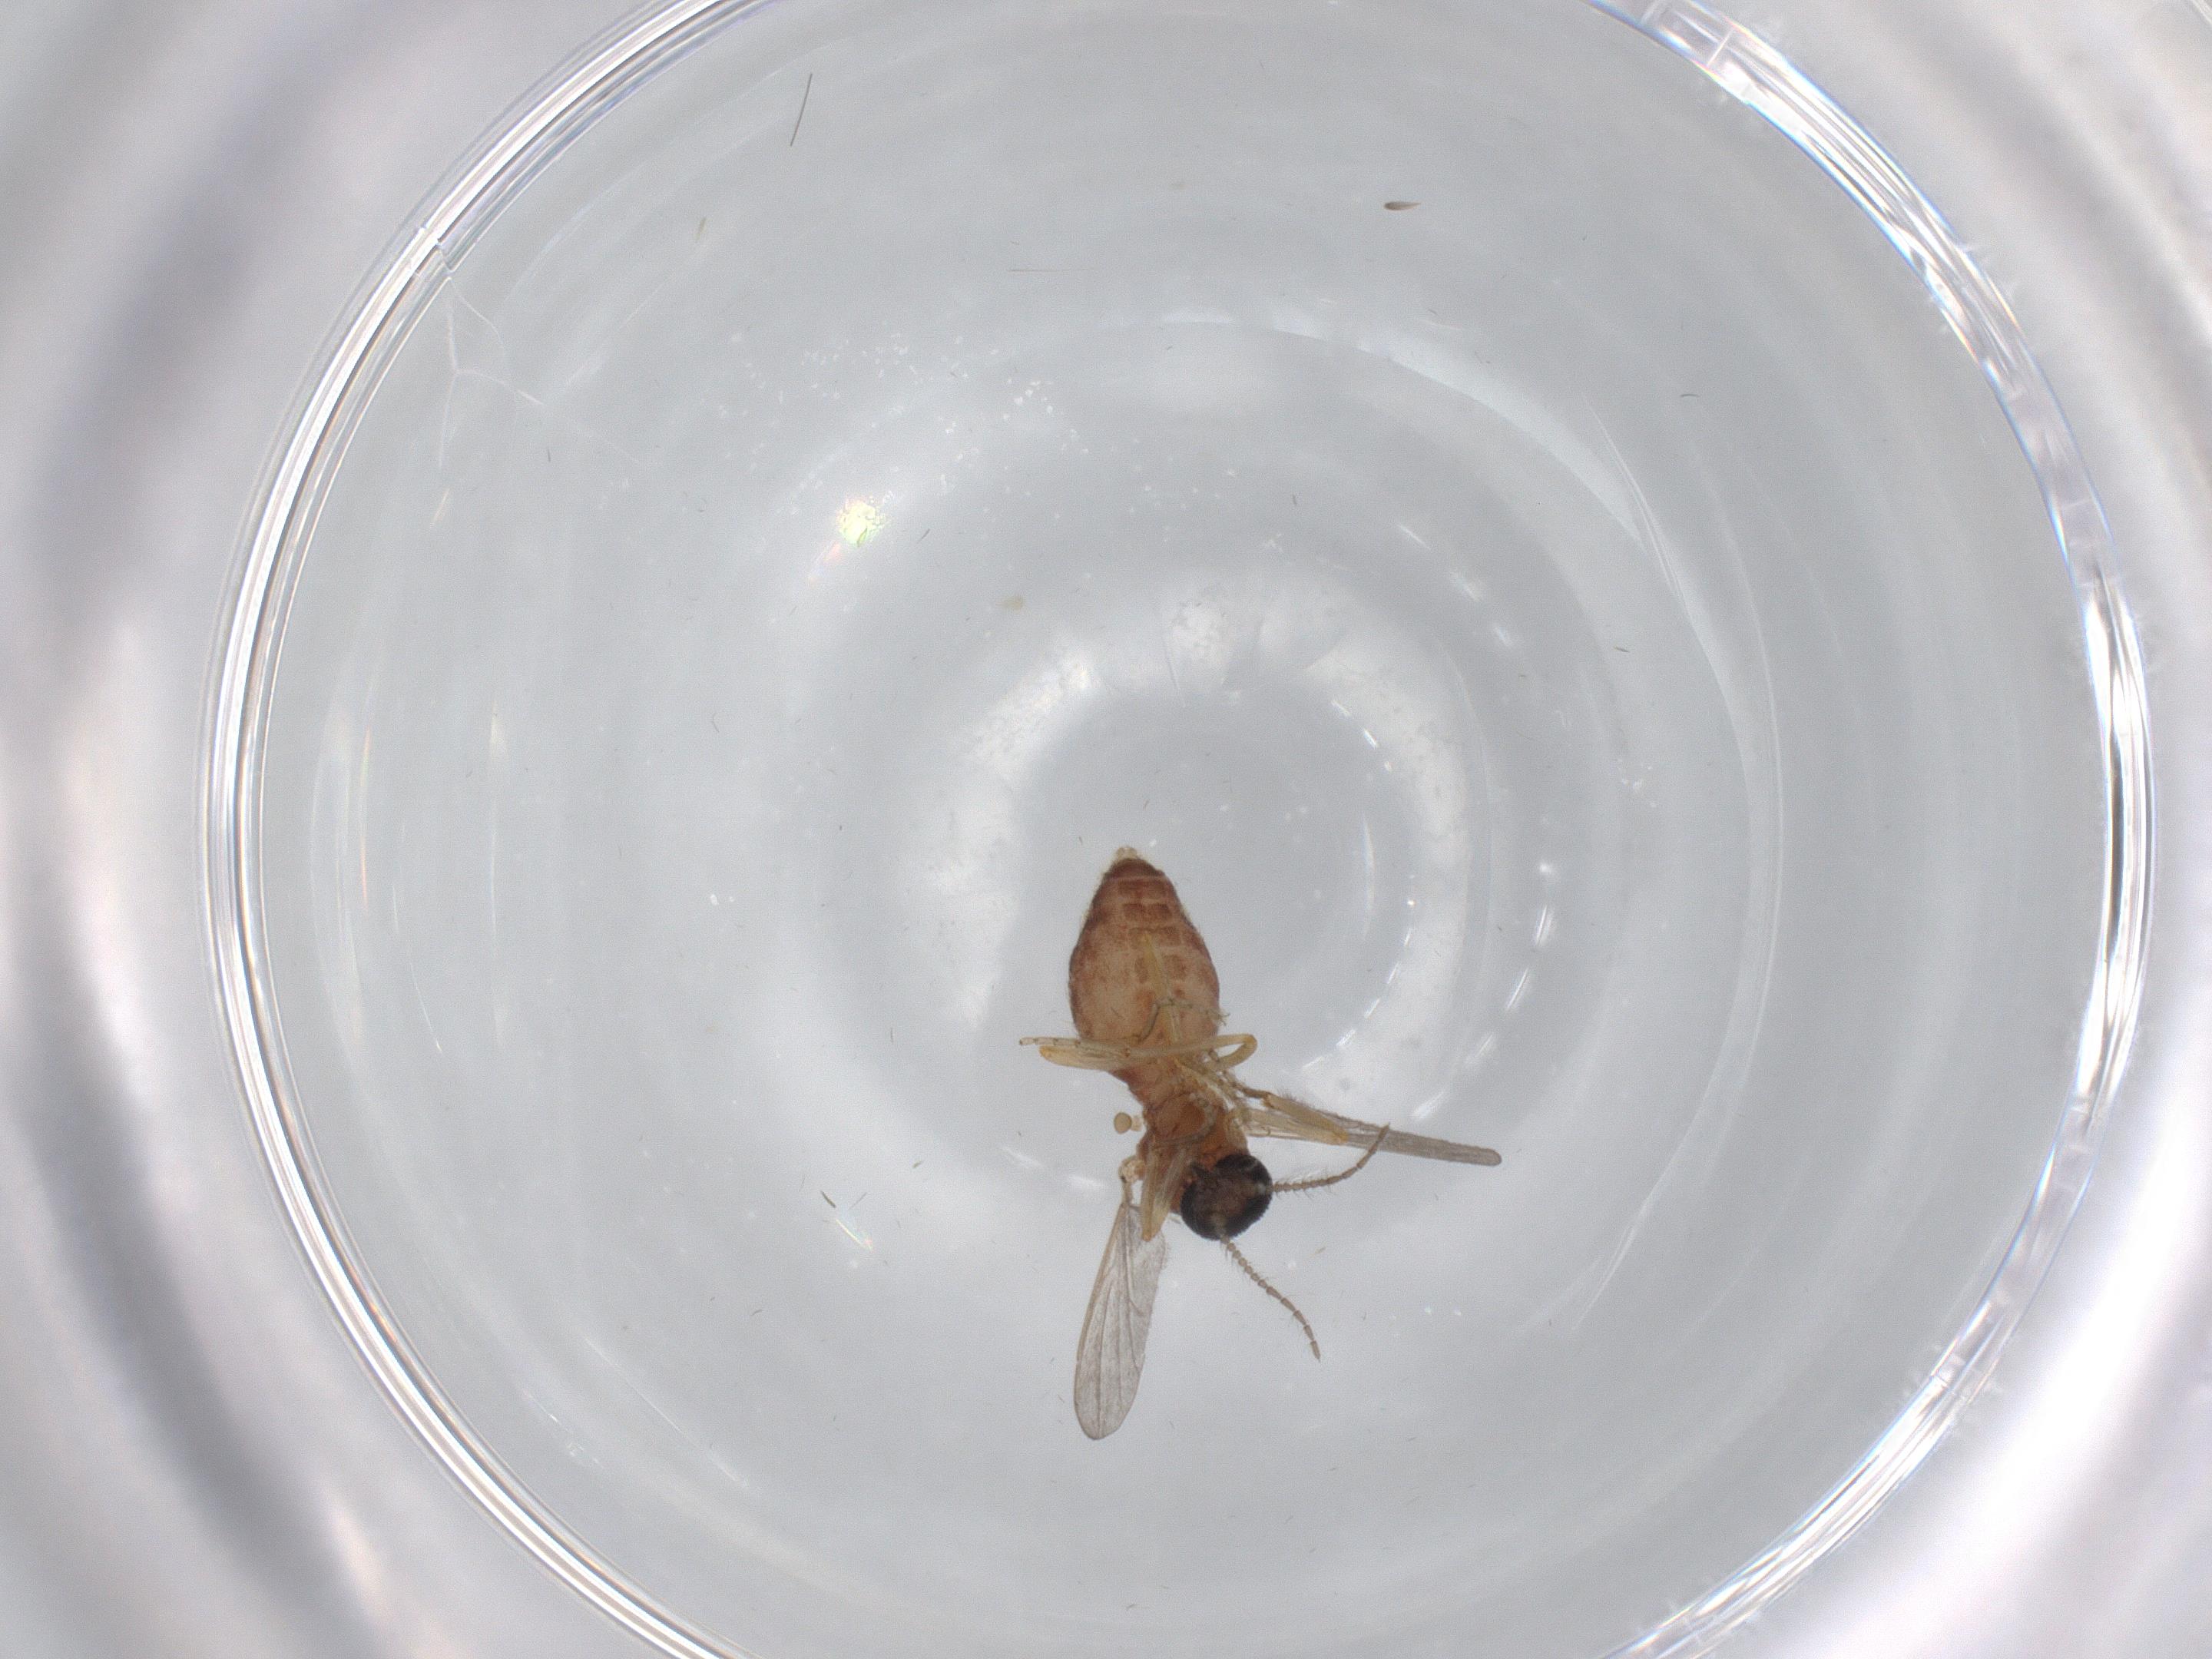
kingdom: Animalia
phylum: Arthropoda
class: Insecta
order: Diptera
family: Ceratopogonidae
